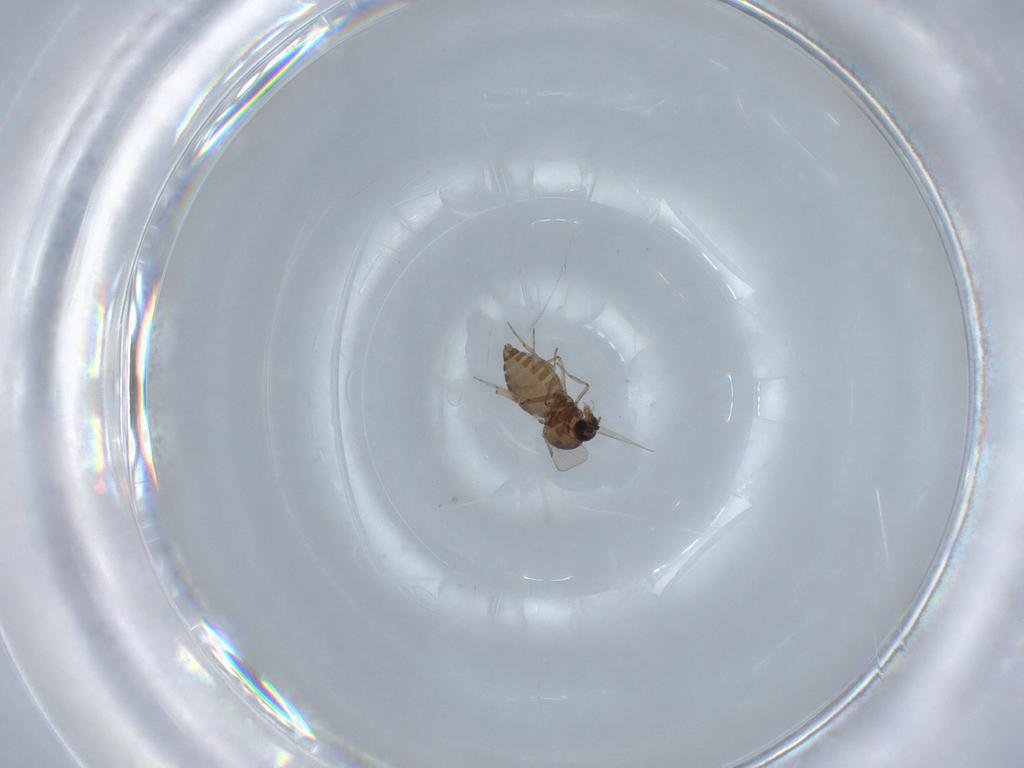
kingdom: Animalia
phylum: Arthropoda
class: Insecta
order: Diptera
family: Ceratopogonidae
